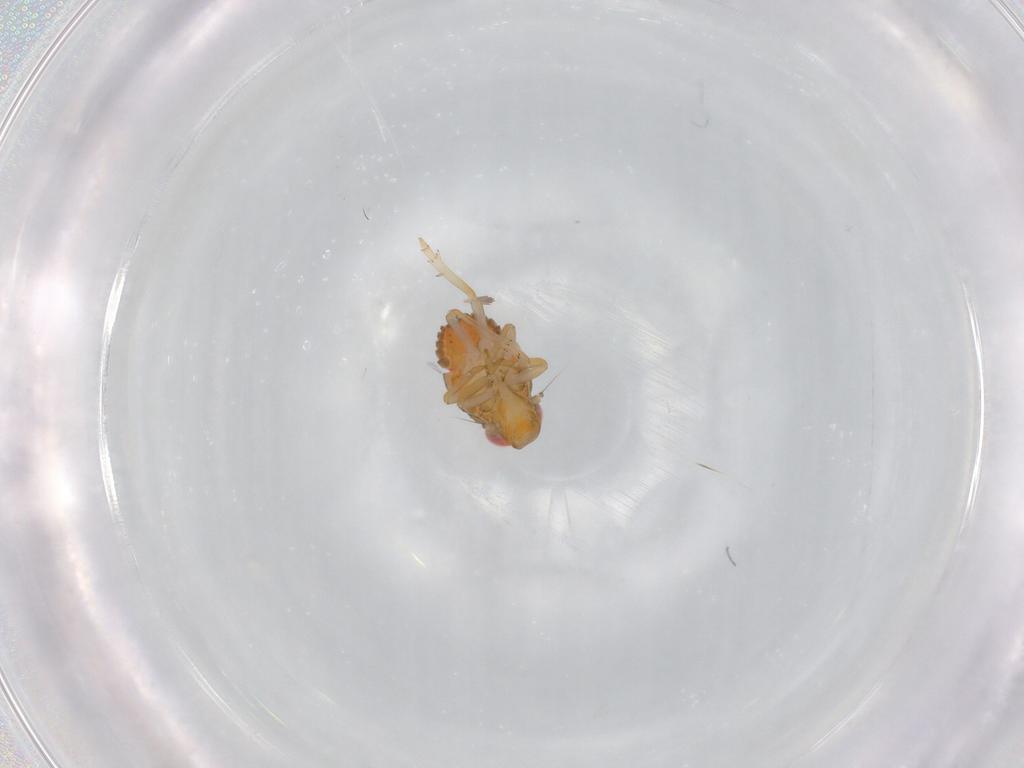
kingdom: Animalia
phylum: Arthropoda
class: Insecta
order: Hemiptera
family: Issidae
